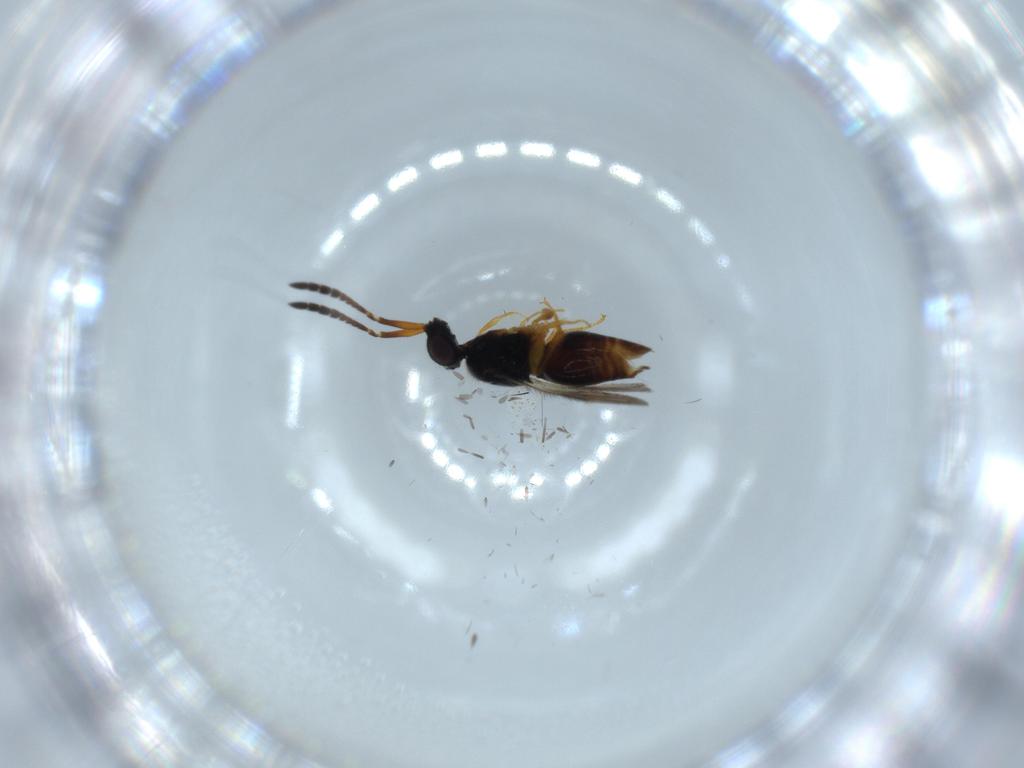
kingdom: Animalia
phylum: Arthropoda
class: Insecta
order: Hymenoptera
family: Ceraphronidae
